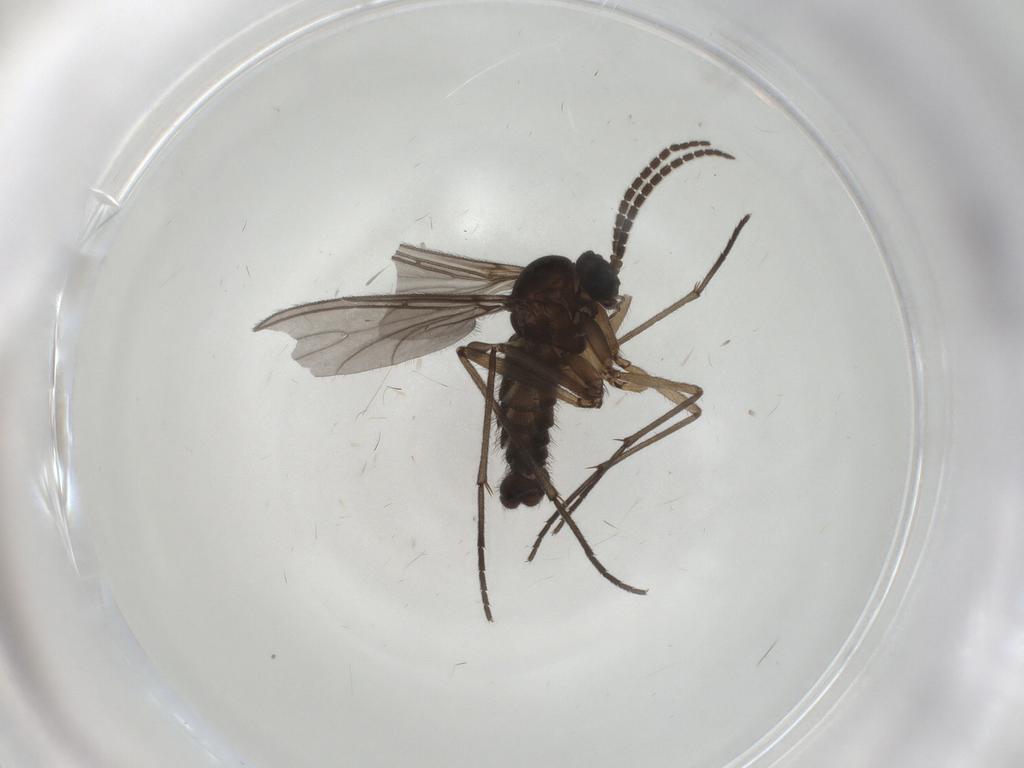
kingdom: Animalia
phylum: Arthropoda
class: Insecta
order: Diptera
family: Sciaridae
